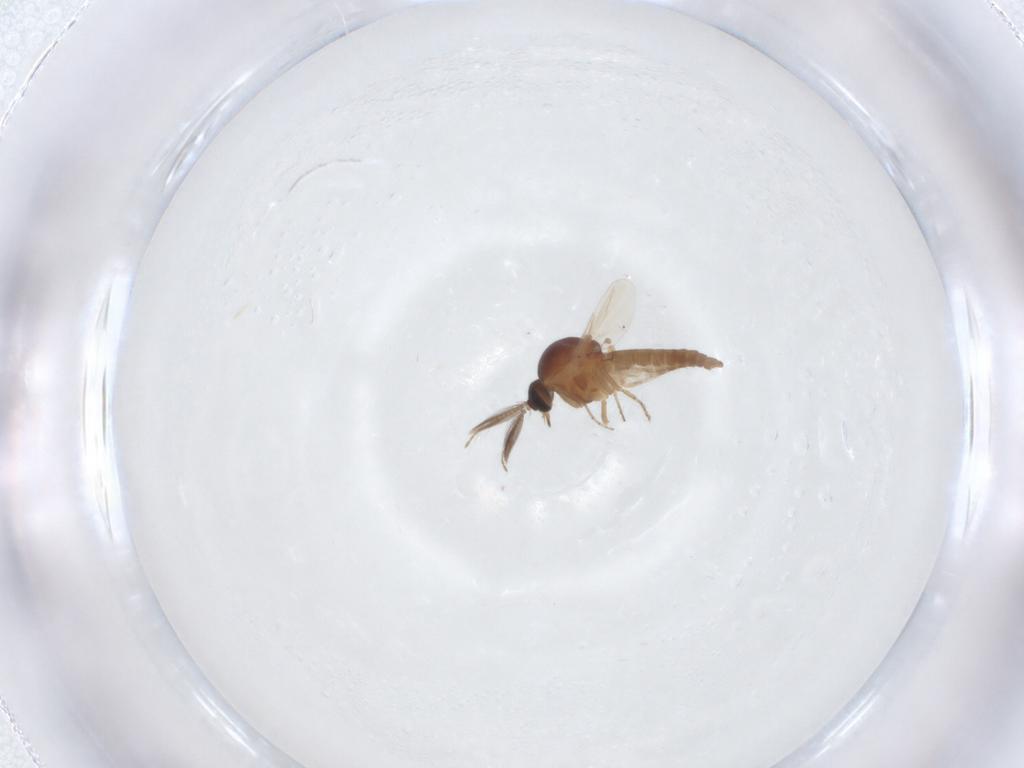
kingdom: Animalia
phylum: Arthropoda
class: Insecta
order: Diptera
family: Ceratopogonidae
